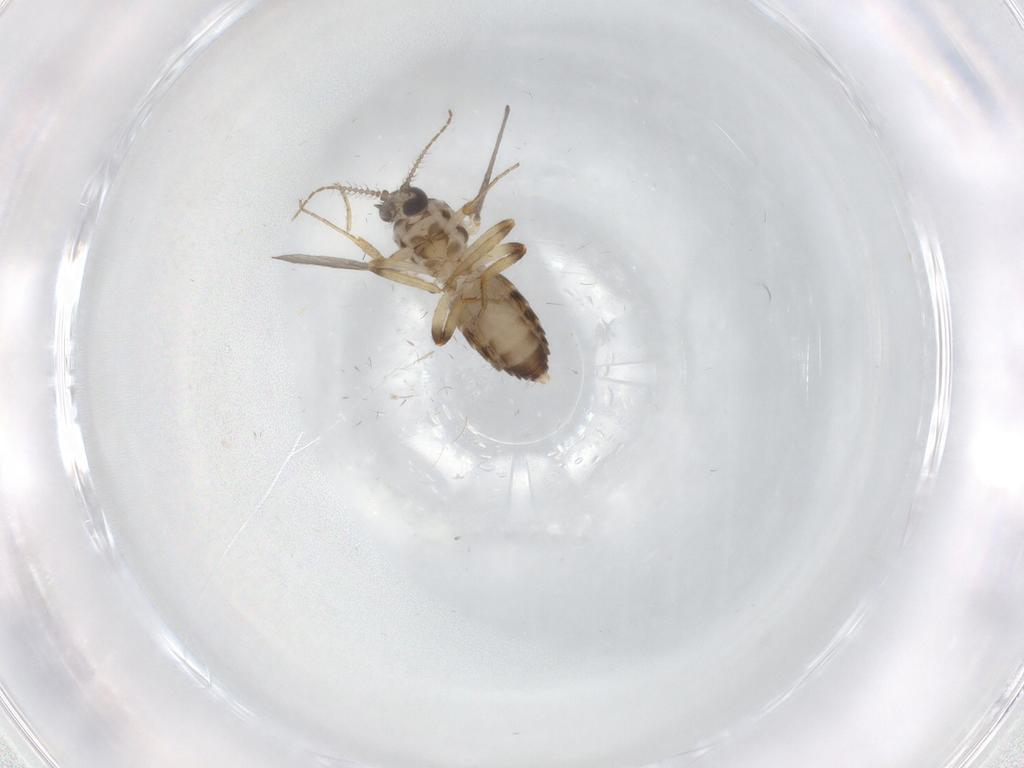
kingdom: Animalia
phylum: Arthropoda
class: Insecta
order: Diptera
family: Ceratopogonidae
